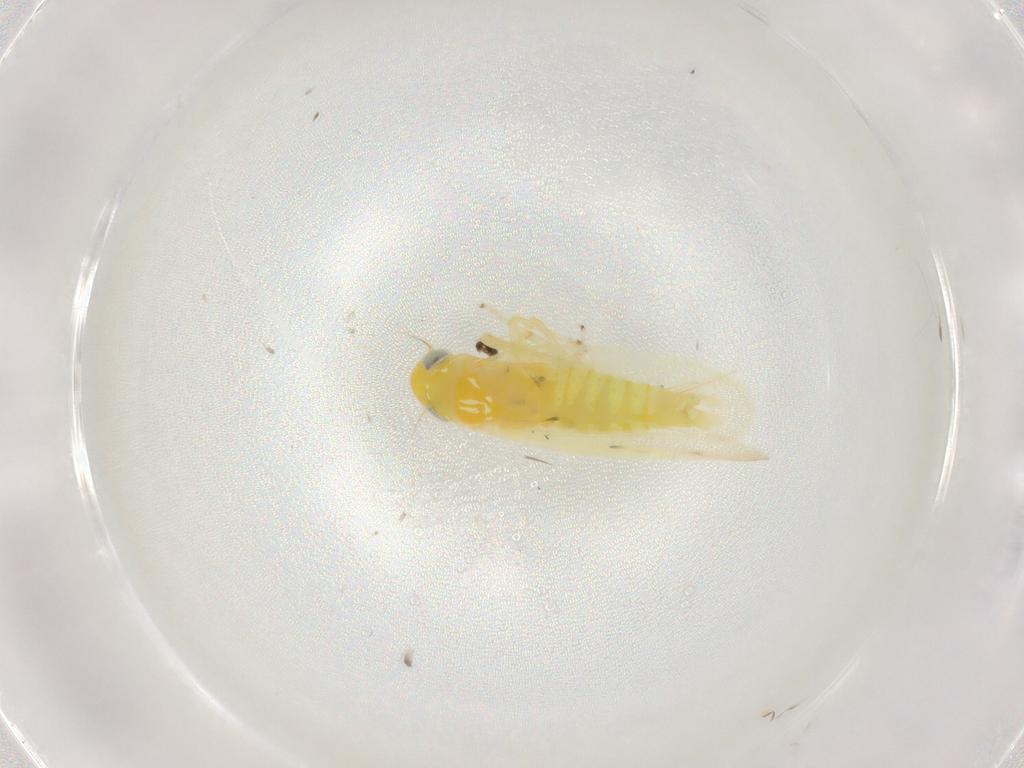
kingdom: Animalia
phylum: Arthropoda
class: Insecta
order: Hemiptera
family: Cicadellidae
